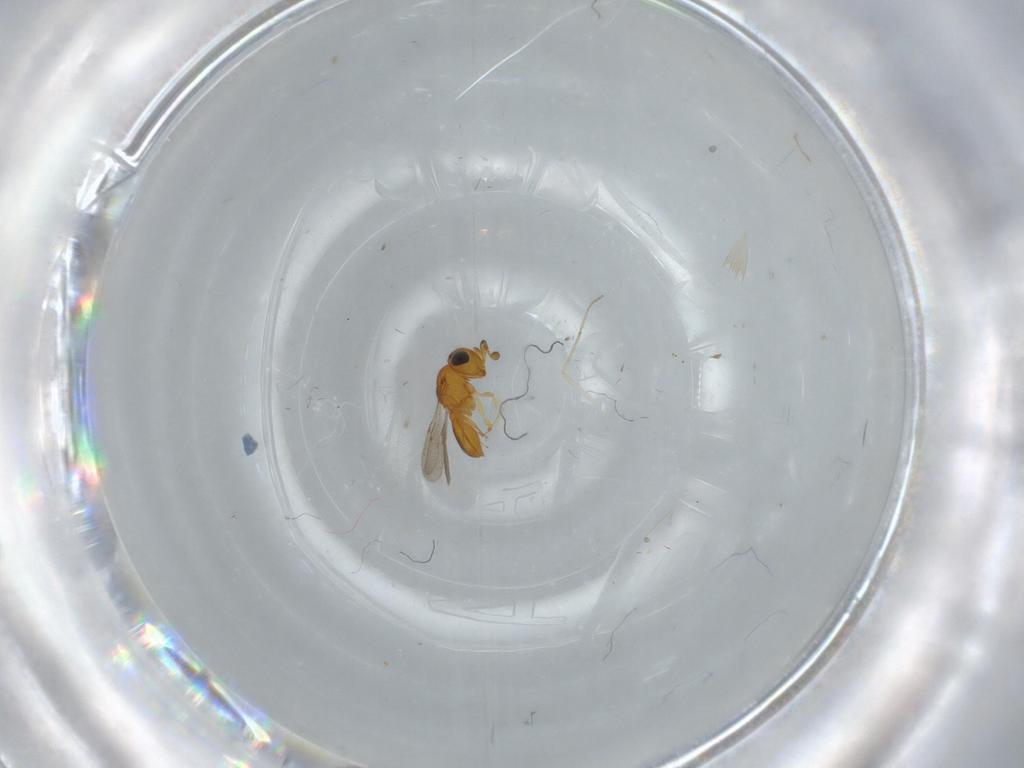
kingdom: Animalia
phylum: Arthropoda
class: Insecta
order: Hymenoptera
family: Scelionidae
